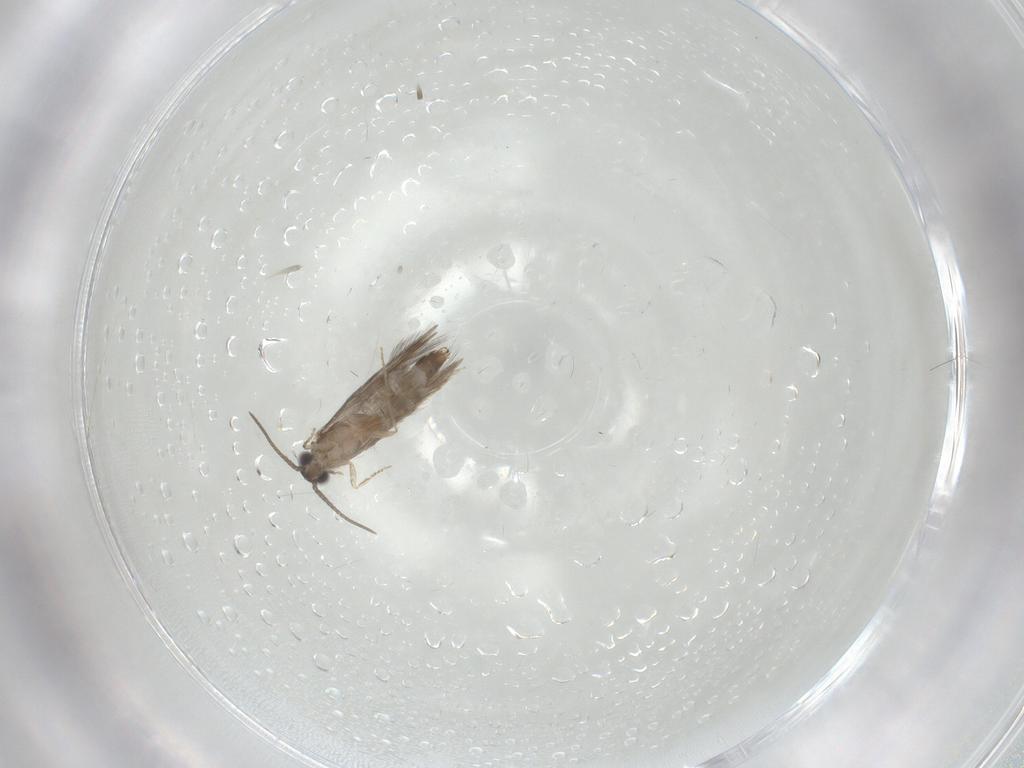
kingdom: Animalia
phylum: Arthropoda
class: Insecta
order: Trichoptera
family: Hydroptilidae
